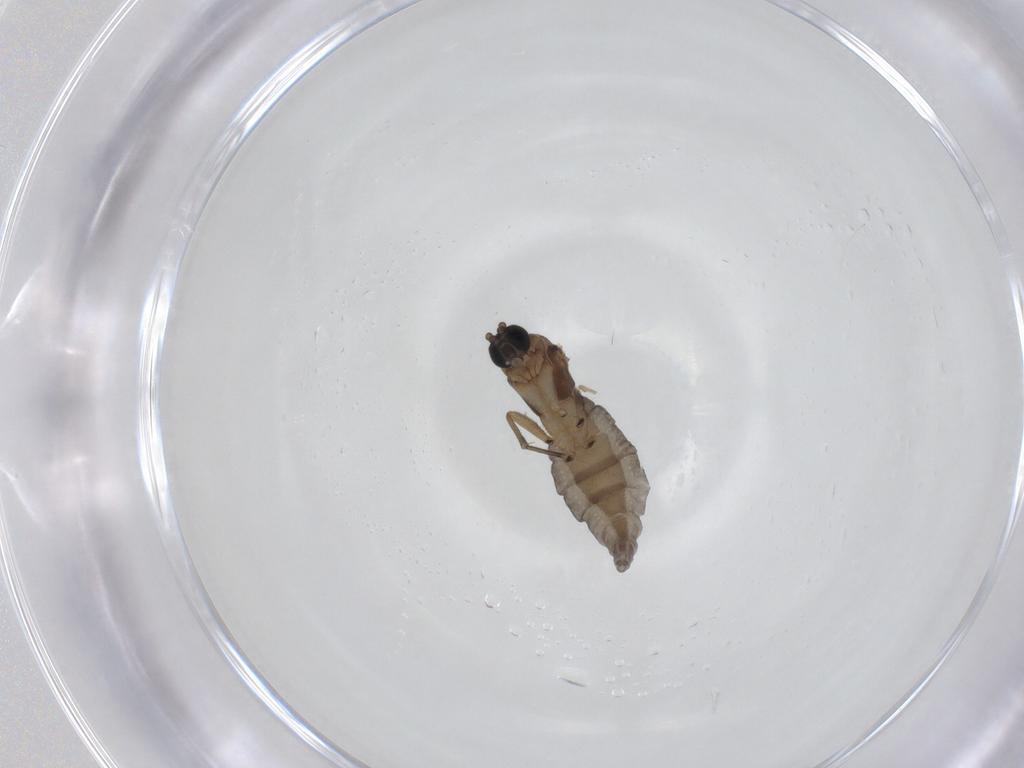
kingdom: Animalia
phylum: Arthropoda
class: Insecta
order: Diptera
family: Sciaridae
